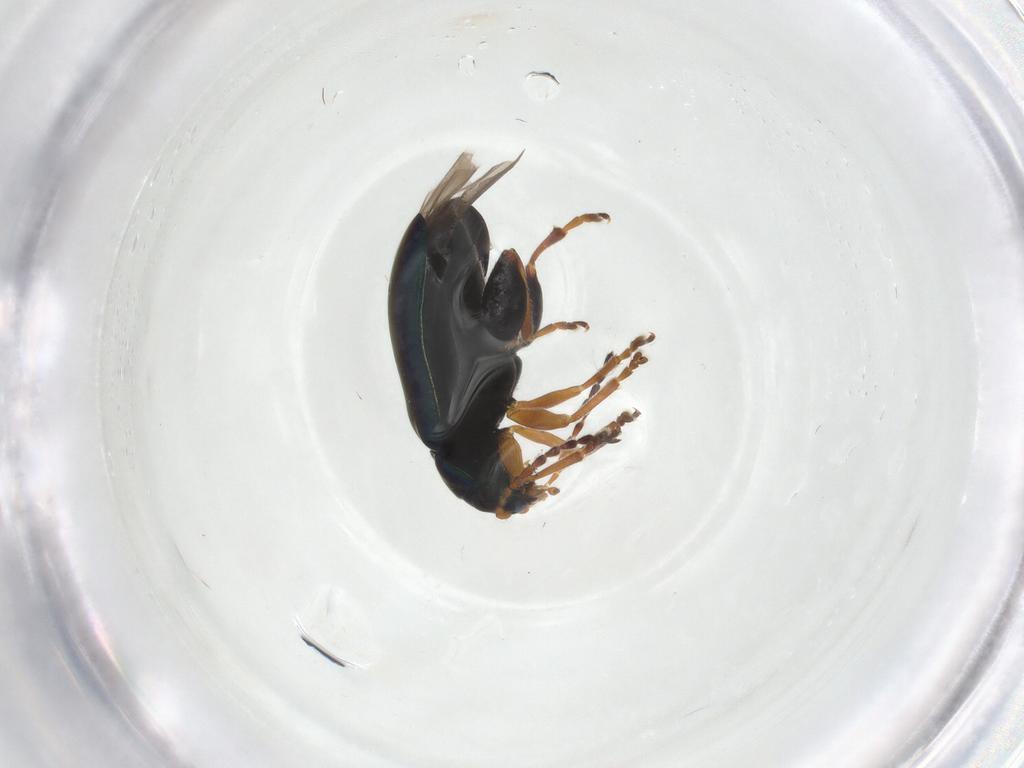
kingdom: Animalia
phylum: Arthropoda
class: Insecta
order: Coleoptera
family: Chrysomelidae
